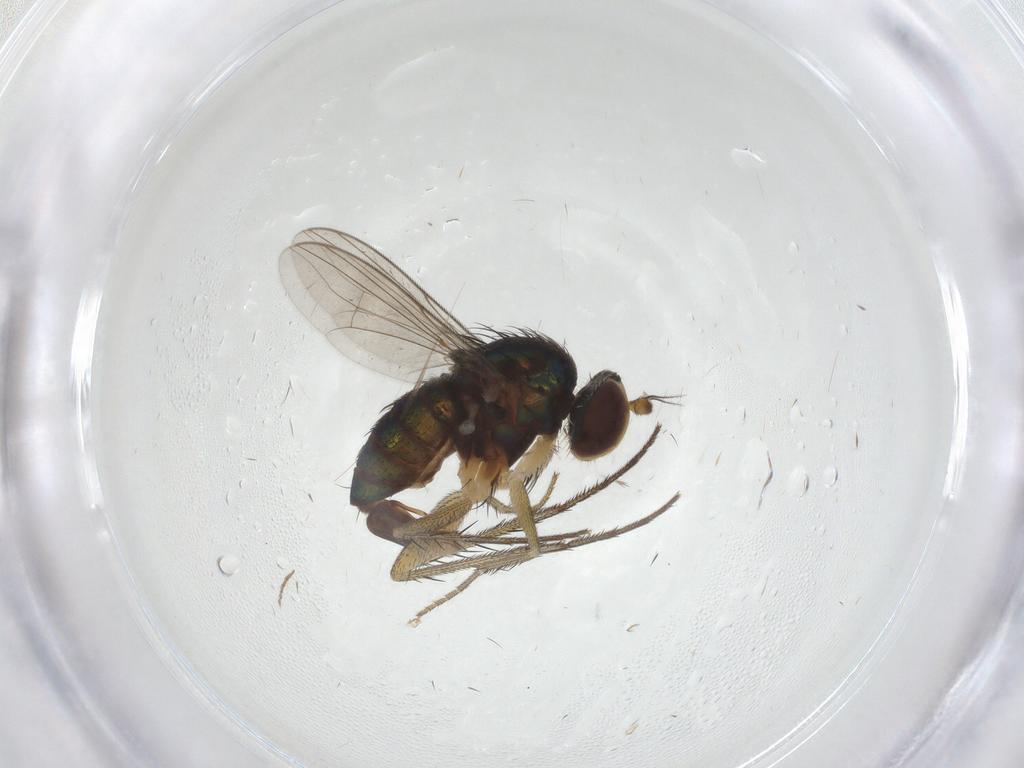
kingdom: Animalia
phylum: Arthropoda
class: Insecta
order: Diptera
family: Dolichopodidae
